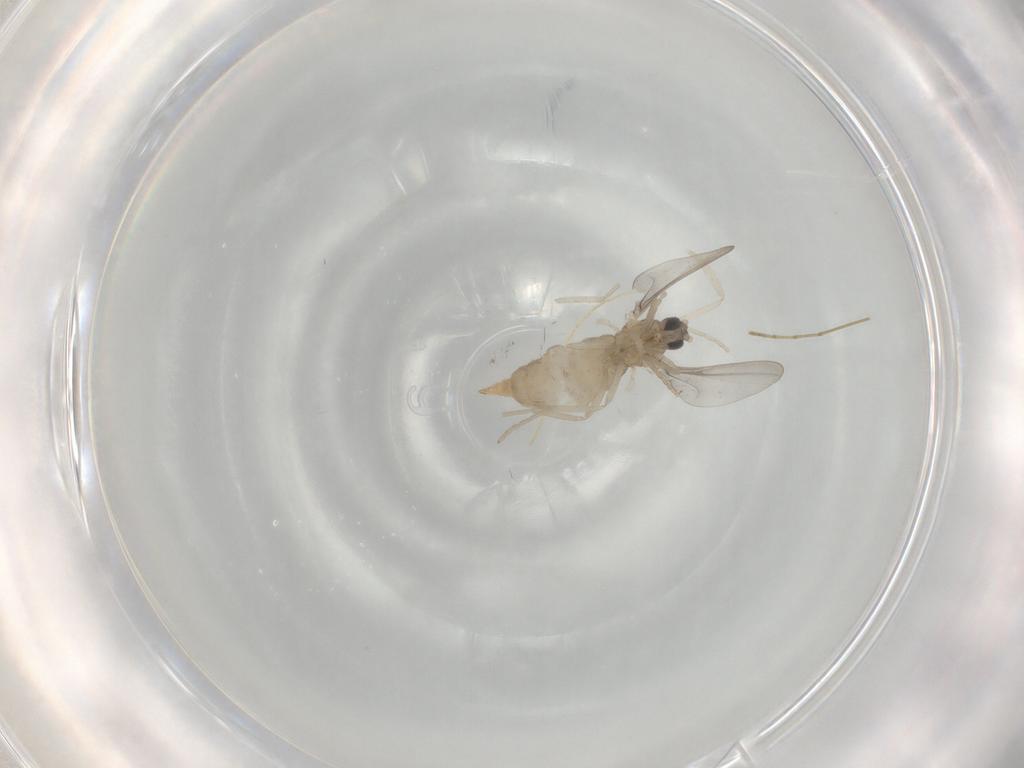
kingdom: Animalia
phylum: Arthropoda
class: Insecta
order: Diptera
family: Cecidomyiidae
